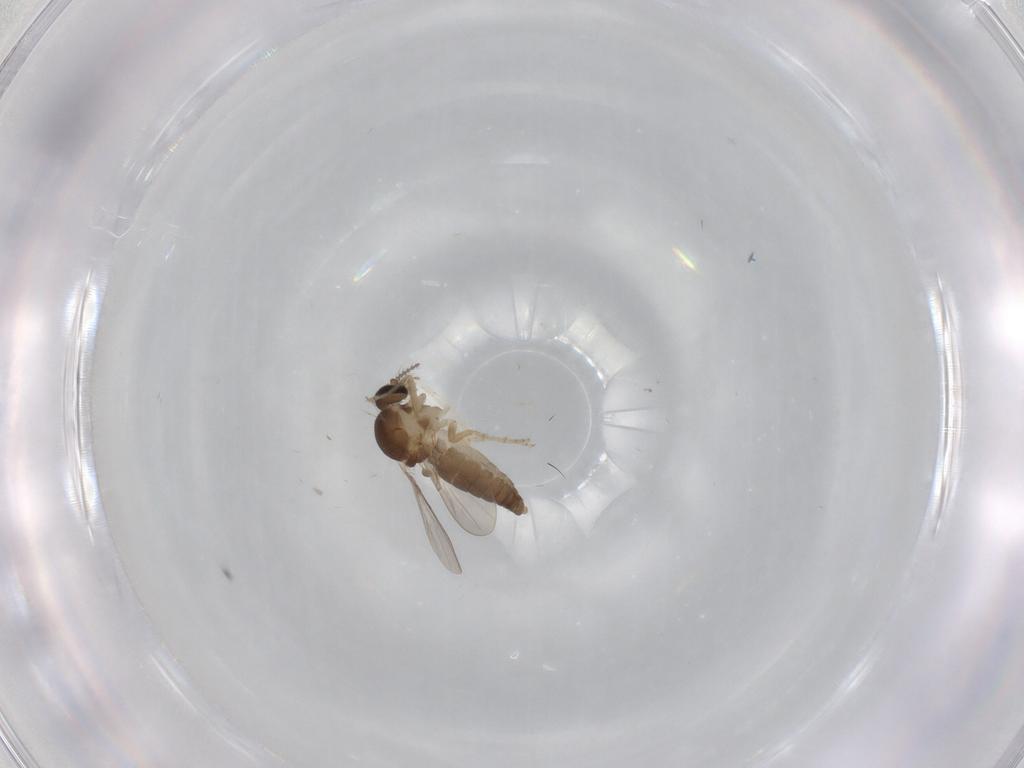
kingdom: Animalia
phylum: Arthropoda
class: Insecta
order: Diptera
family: Ceratopogonidae
